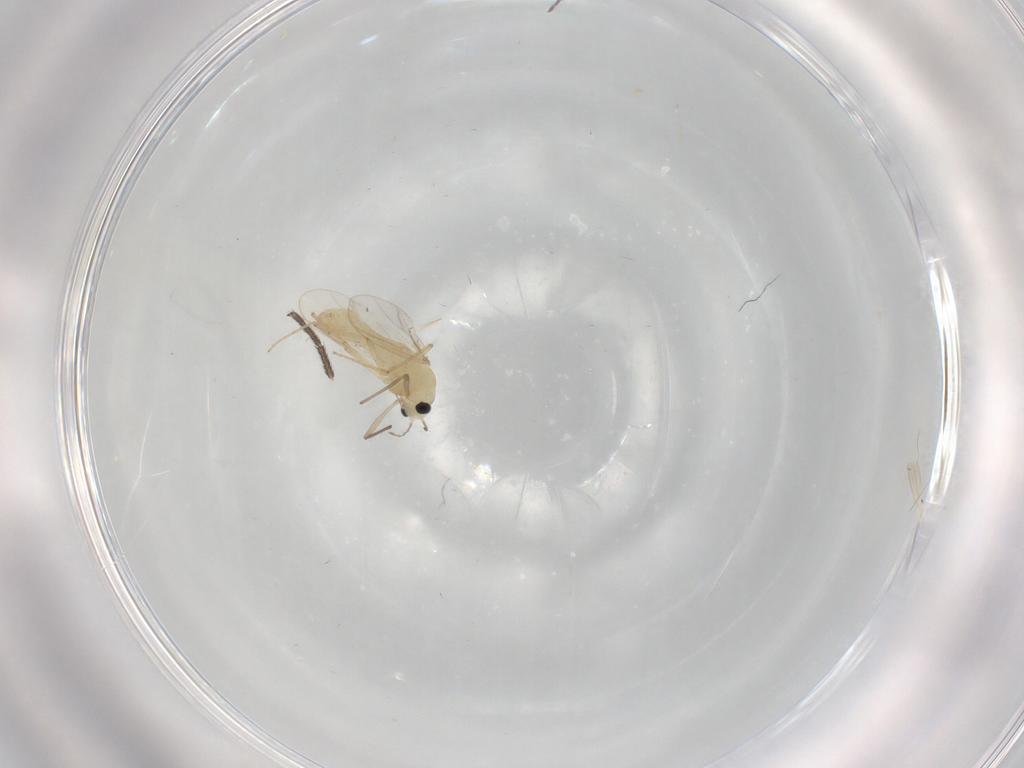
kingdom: Animalia
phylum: Arthropoda
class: Insecta
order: Diptera
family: Chironomidae
